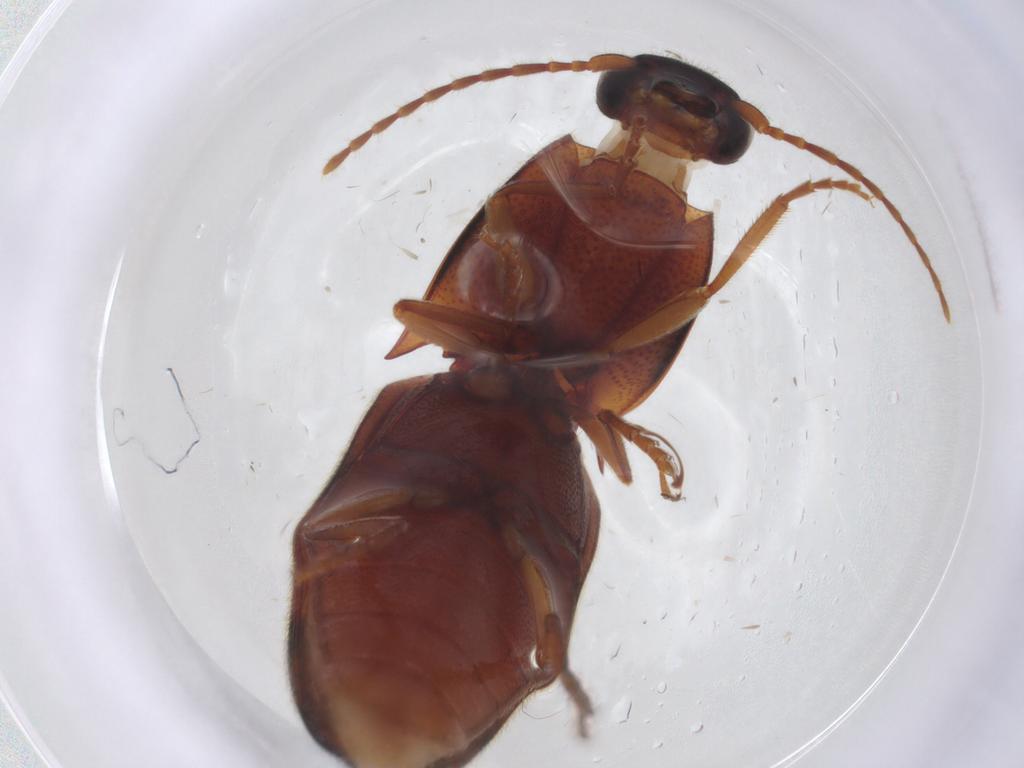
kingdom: Animalia
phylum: Arthropoda
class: Insecta
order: Coleoptera
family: Elateridae
